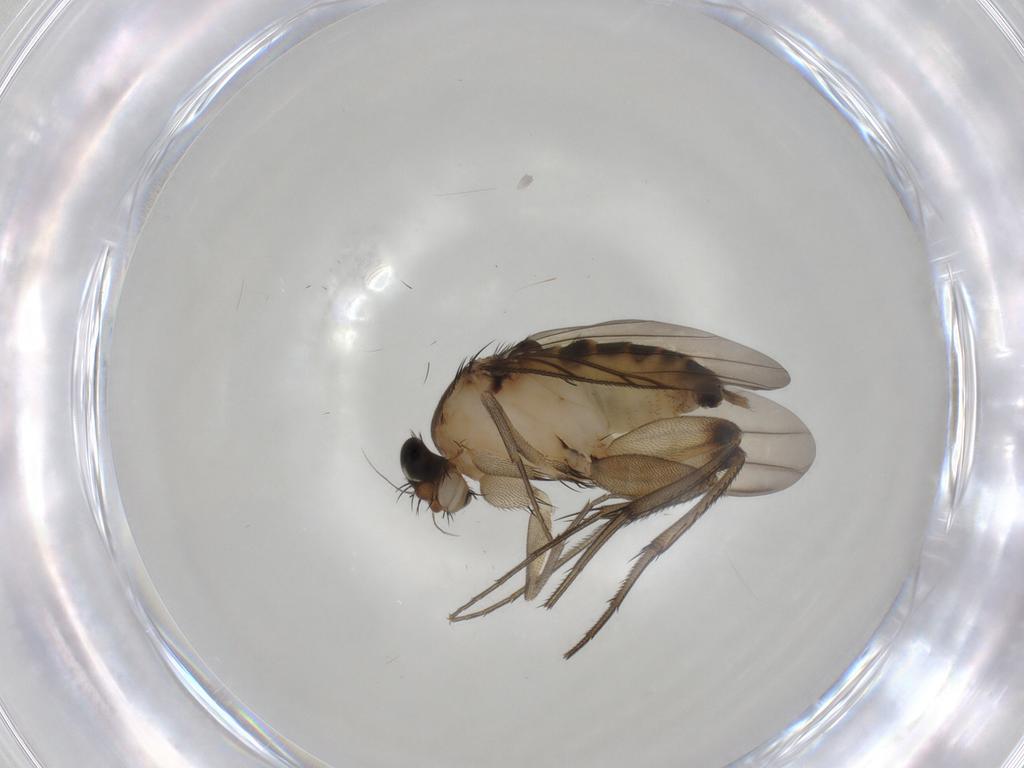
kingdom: Animalia
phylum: Arthropoda
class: Insecta
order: Diptera
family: Phoridae
